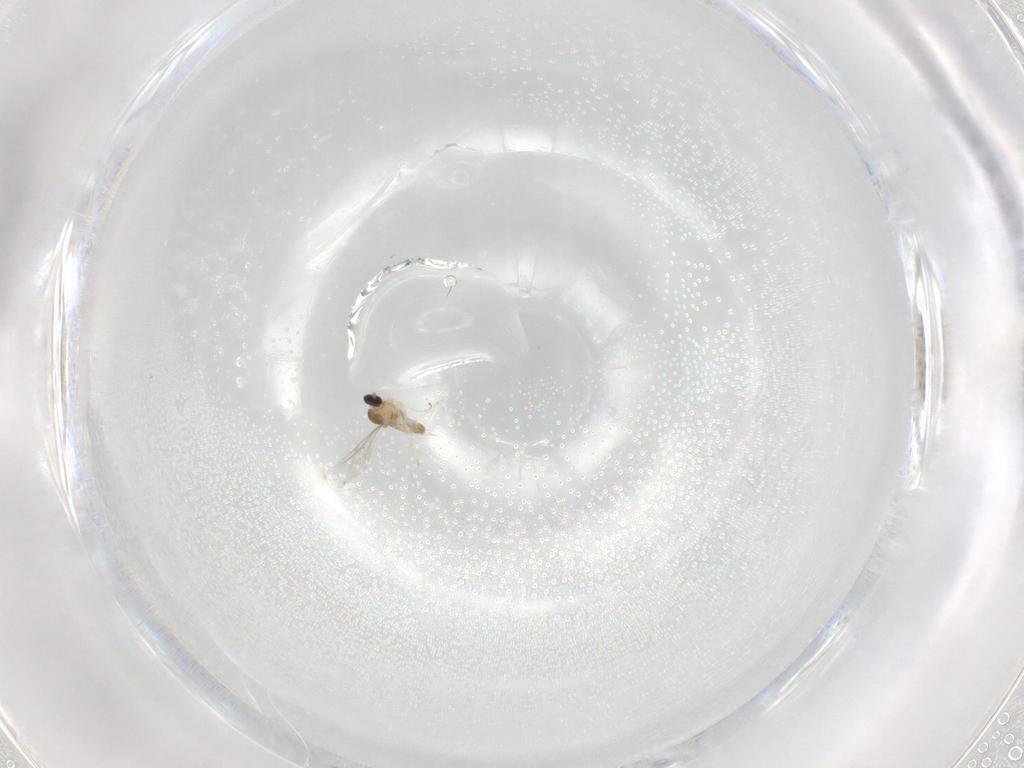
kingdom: Animalia
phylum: Arthropoda
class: Insecta
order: Diptera
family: Cecidomyiidae
